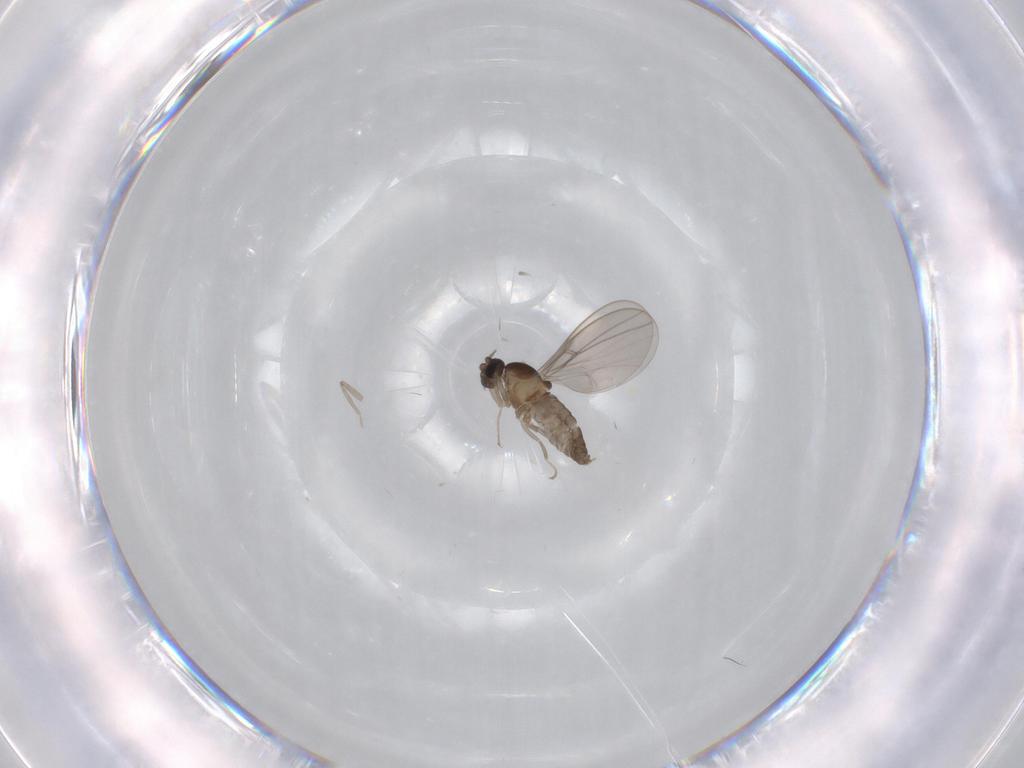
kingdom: Animalia
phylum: Arthropoda
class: Insecta
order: Diptera
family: Cecidomyiidae
